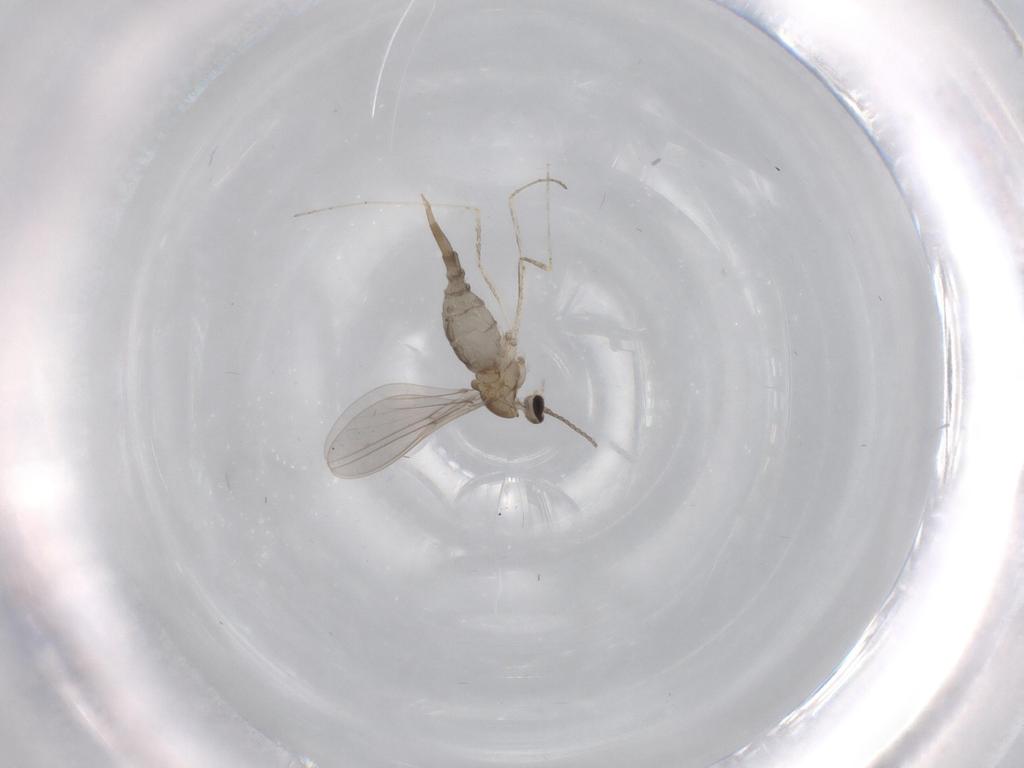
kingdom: Animalia
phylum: Arthropoda
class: Insecta
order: Diptera
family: Cecidomyiidae
